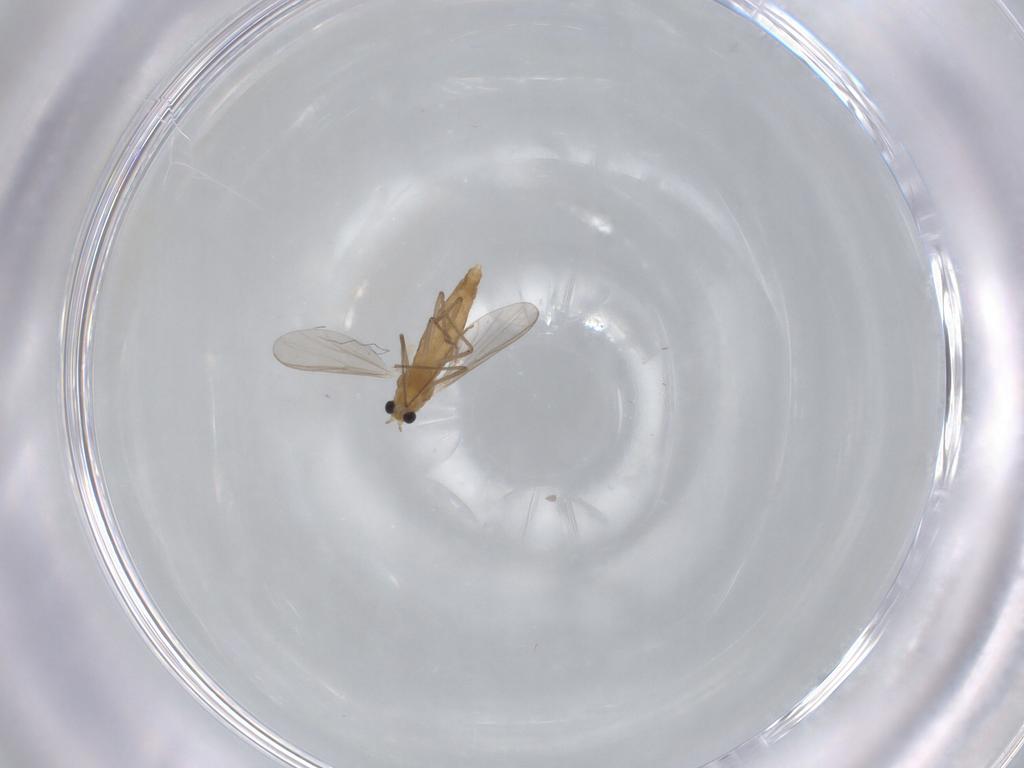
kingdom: Animalia
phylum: Arthropoda
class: Insecta
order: Diptera
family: Chironomidae
